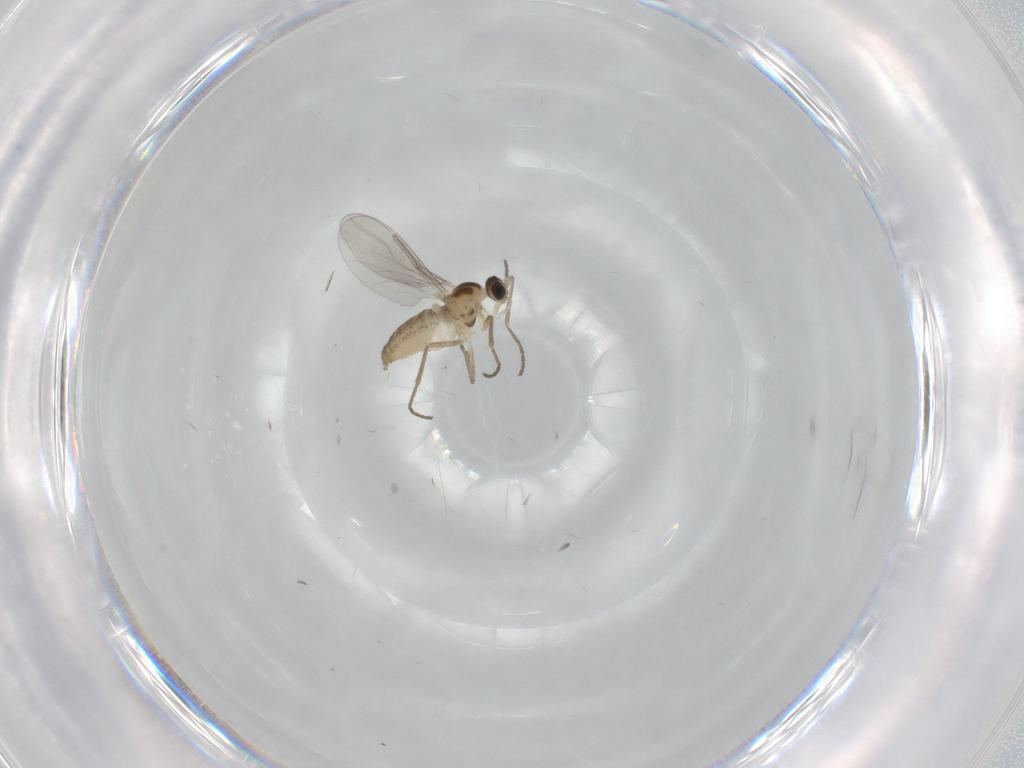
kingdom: Animalia
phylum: Arthropoda
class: Insecta
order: Diptera
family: Cecidomyiidae
